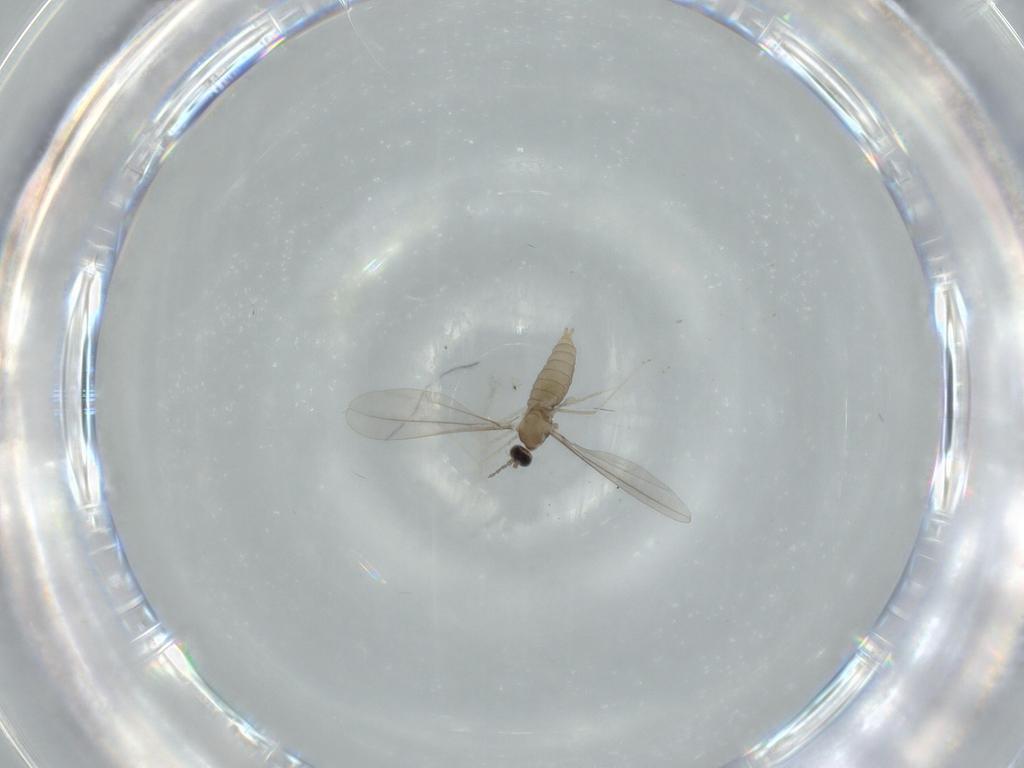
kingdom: Animalia
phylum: Arthropoda
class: Insecta
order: Diptera
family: Cecidomyiidae
